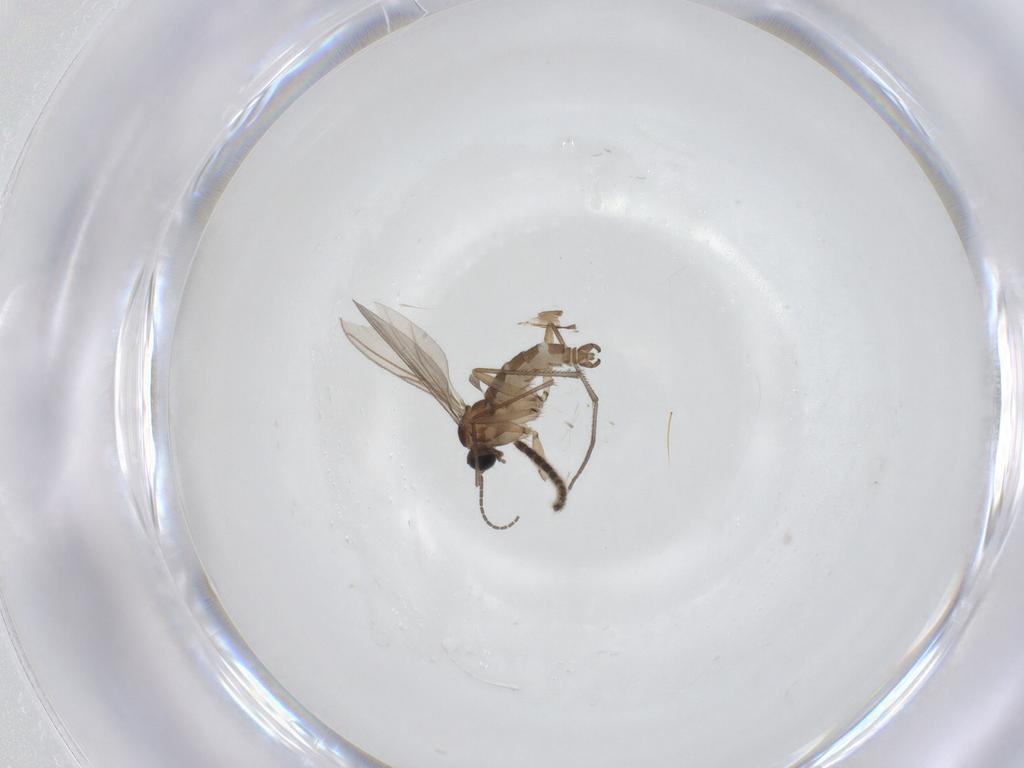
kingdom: Animalia
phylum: Arthropoda
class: Insecta
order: Diptera
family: Sciaridae
